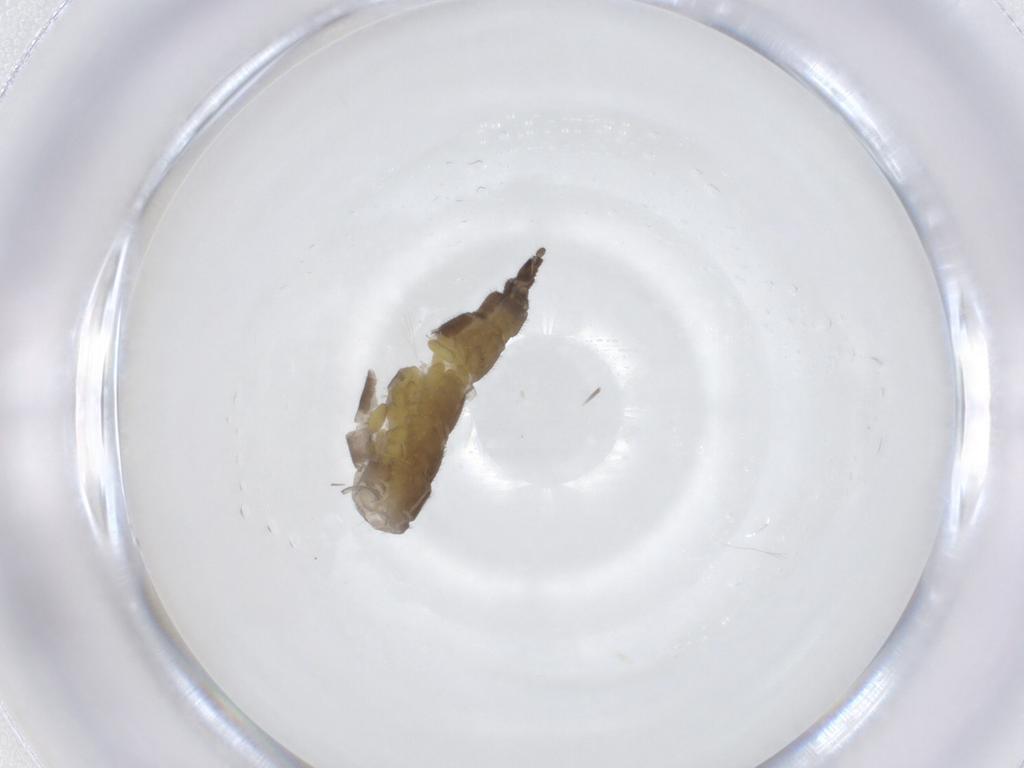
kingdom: Animalia
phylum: Arthropoda
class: Insecta
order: Diptera
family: Sciaridae
